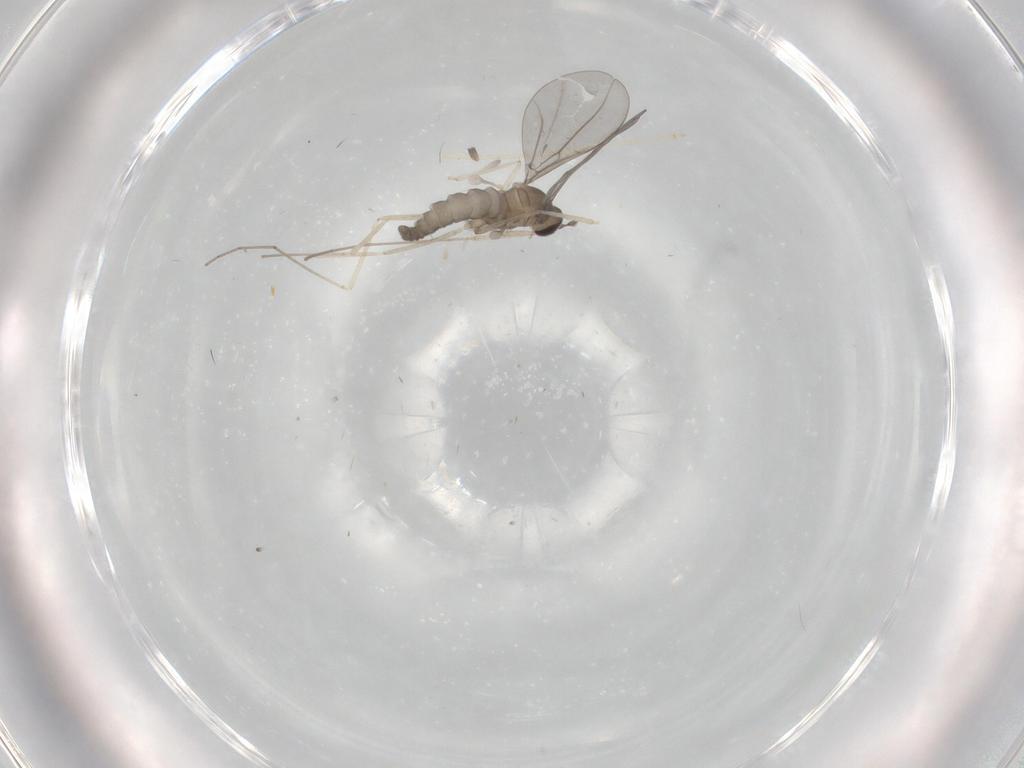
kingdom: Animalia
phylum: Arthropoda
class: Insecta
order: Diptera
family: Cecidomyiidae
